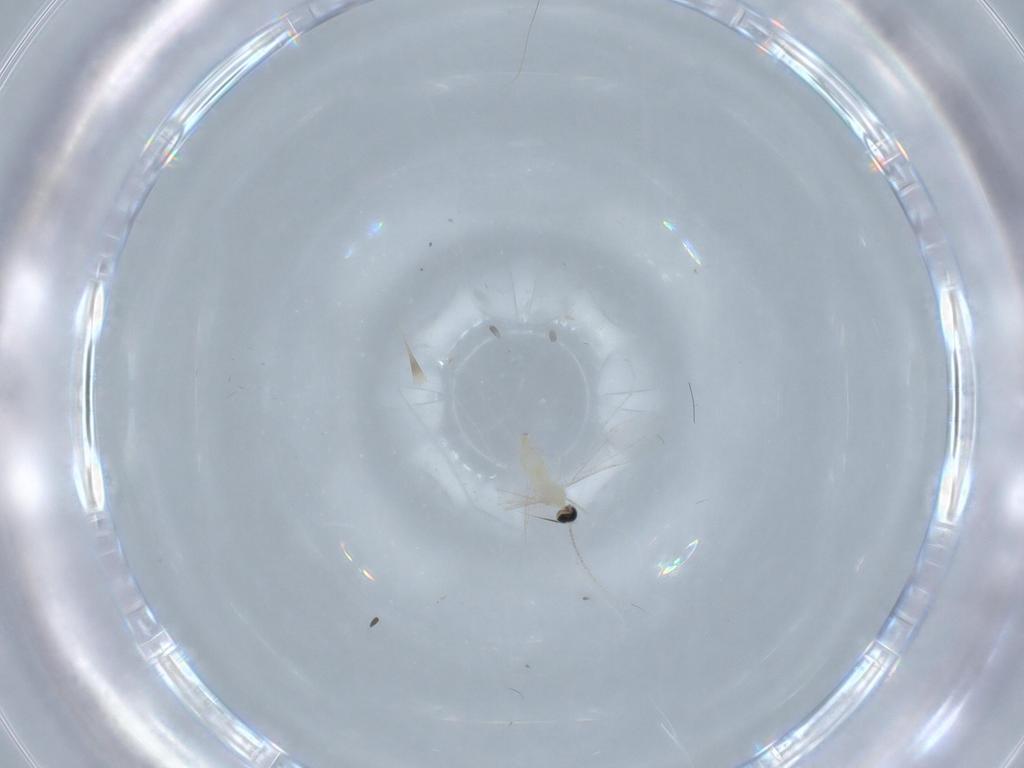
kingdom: Animalia
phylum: Arthropoda
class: Insecta
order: Diptera
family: Cecidomyiidae
